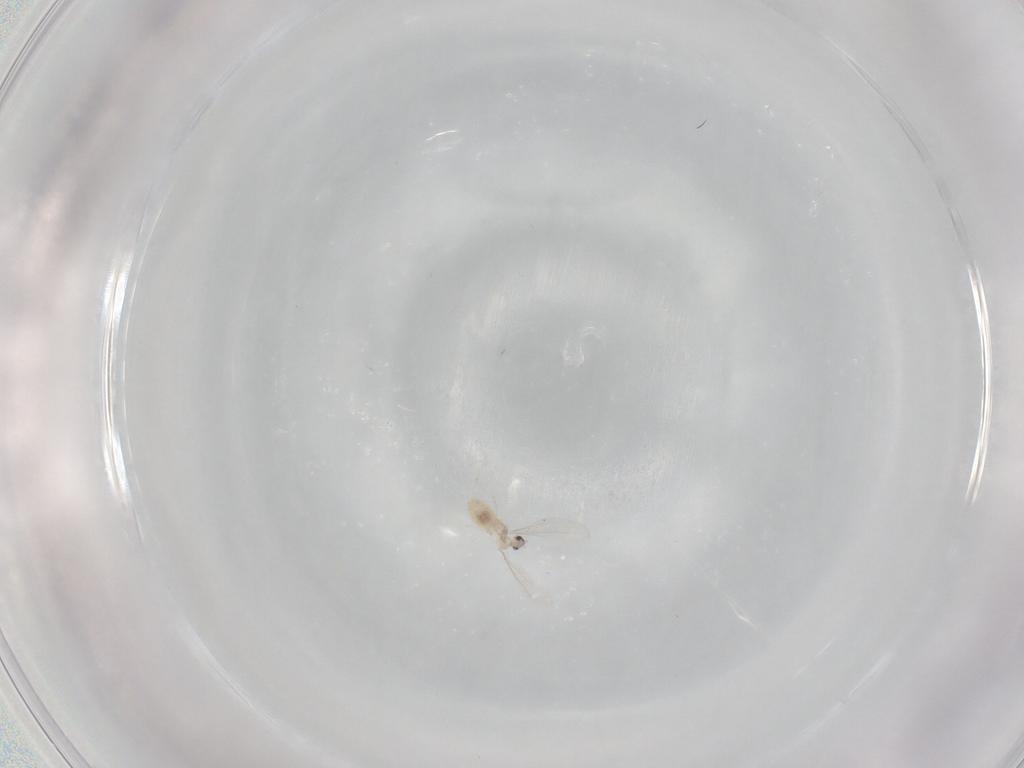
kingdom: Animalia
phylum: Arthropoda
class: Insecta
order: Diptera
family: Cecidomyiidae
